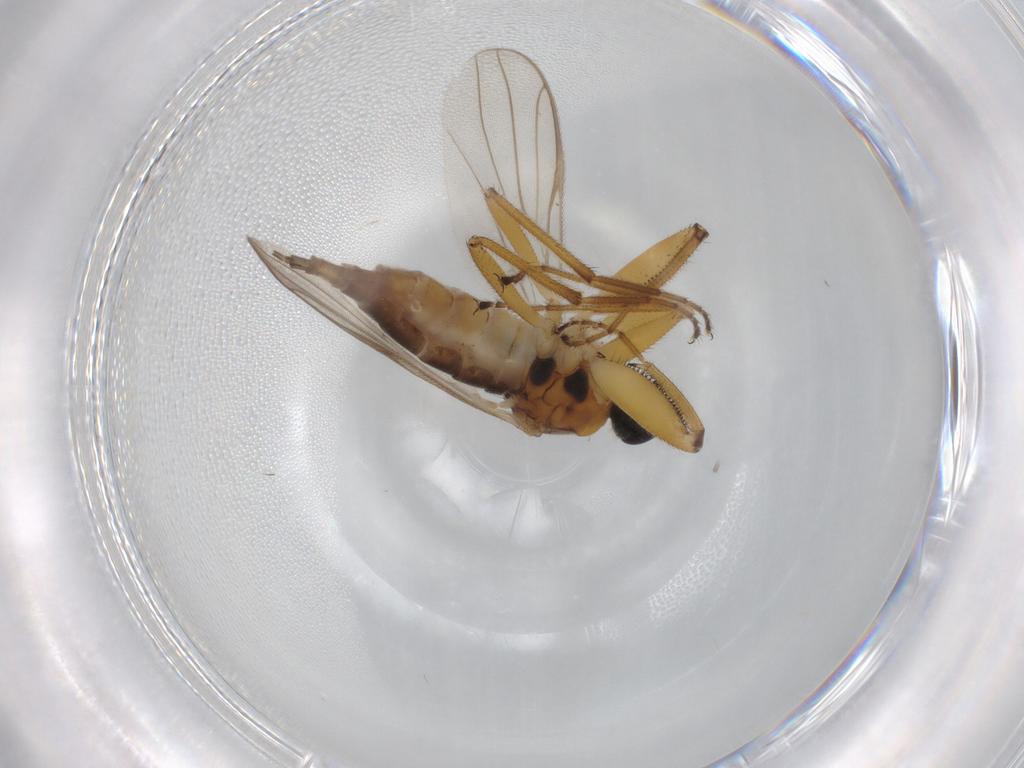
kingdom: Animalia
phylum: Arthropoda
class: Insecta
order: Diptera
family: Hybotidae
